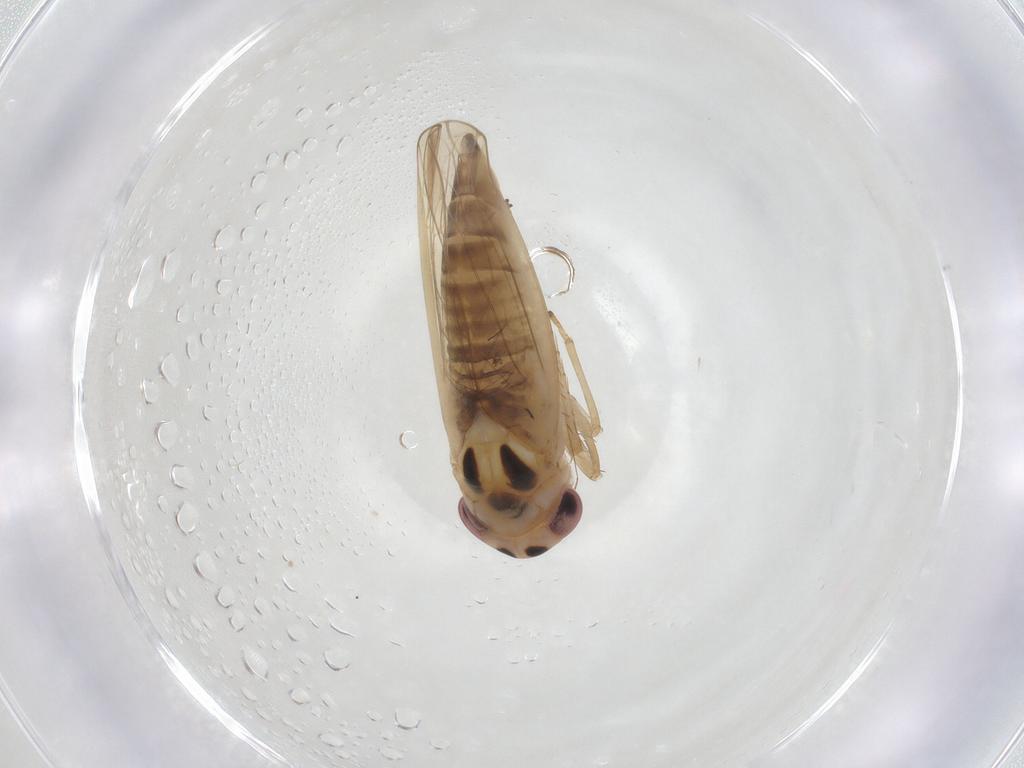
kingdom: Animalia
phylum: Arthropoda
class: Insecta
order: Hemiptera
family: Cicadellidae
